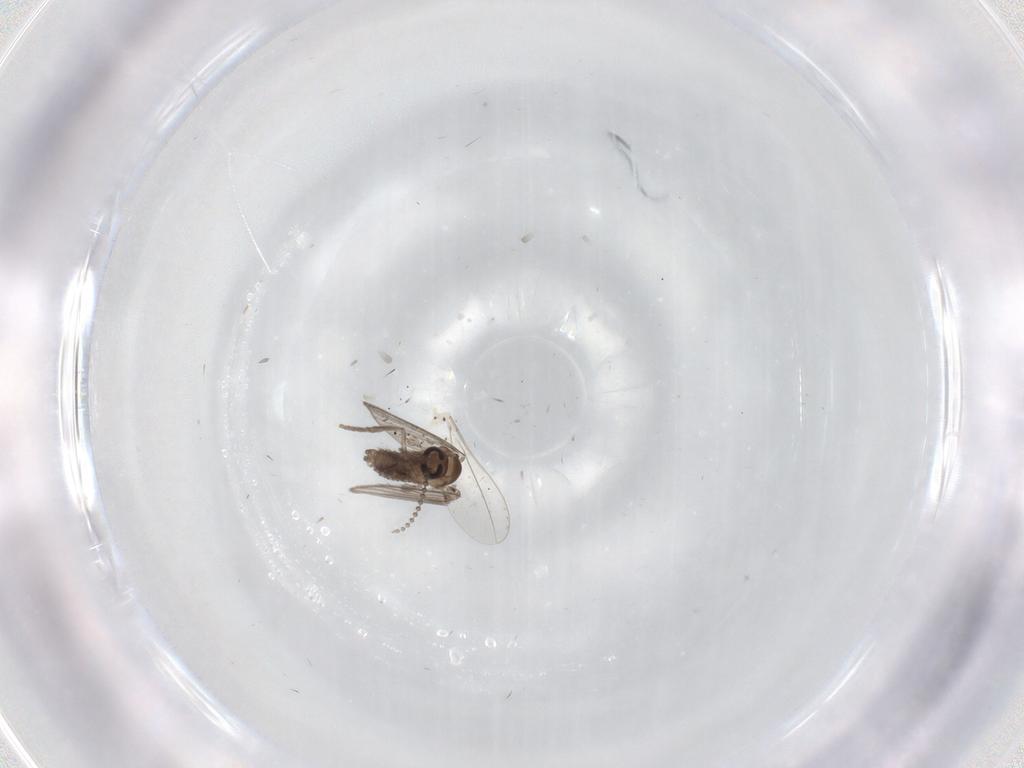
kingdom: Animalia
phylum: Arthropoda
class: Insecta
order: Diptera
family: Psychodidae
